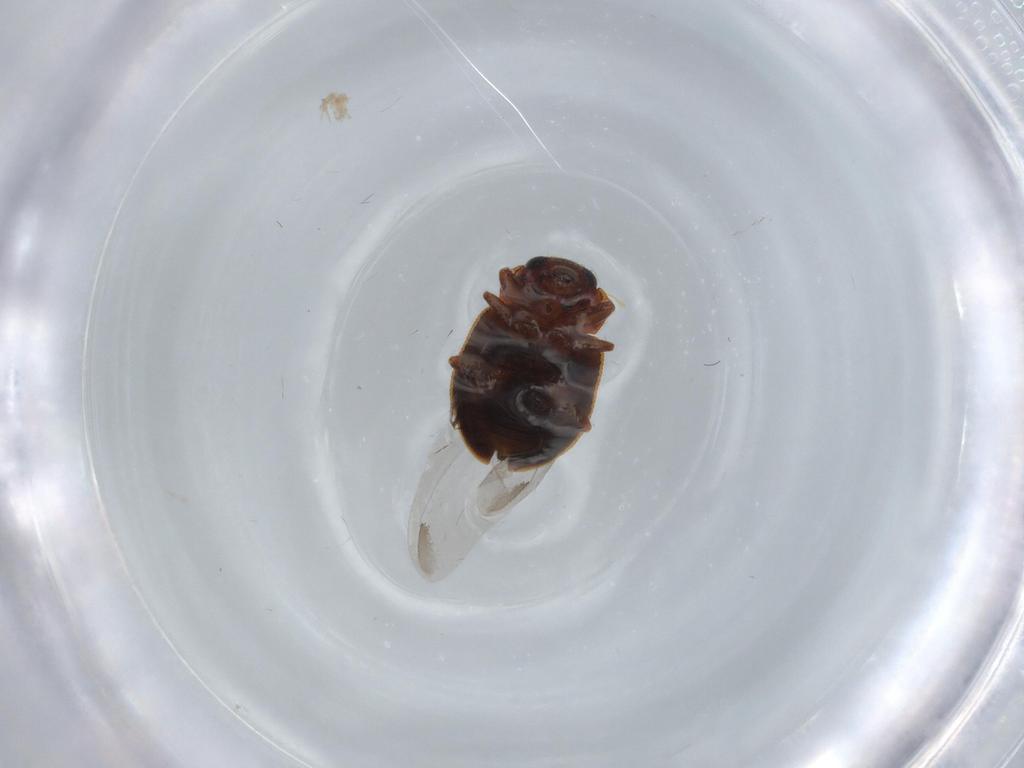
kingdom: Animalia
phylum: Arthropoda
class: Insecta
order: Coleoptera
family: Coccinellidae
